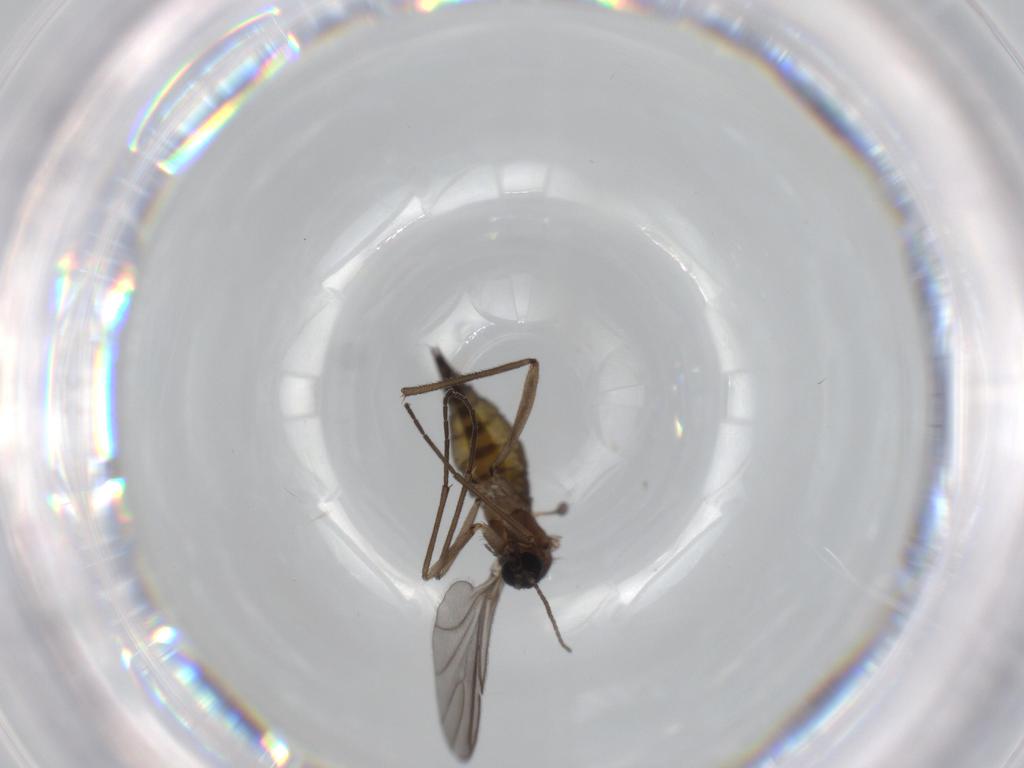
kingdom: Animalia
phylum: Arthropoda
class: Insecta
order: Diptera
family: Sciaridae
